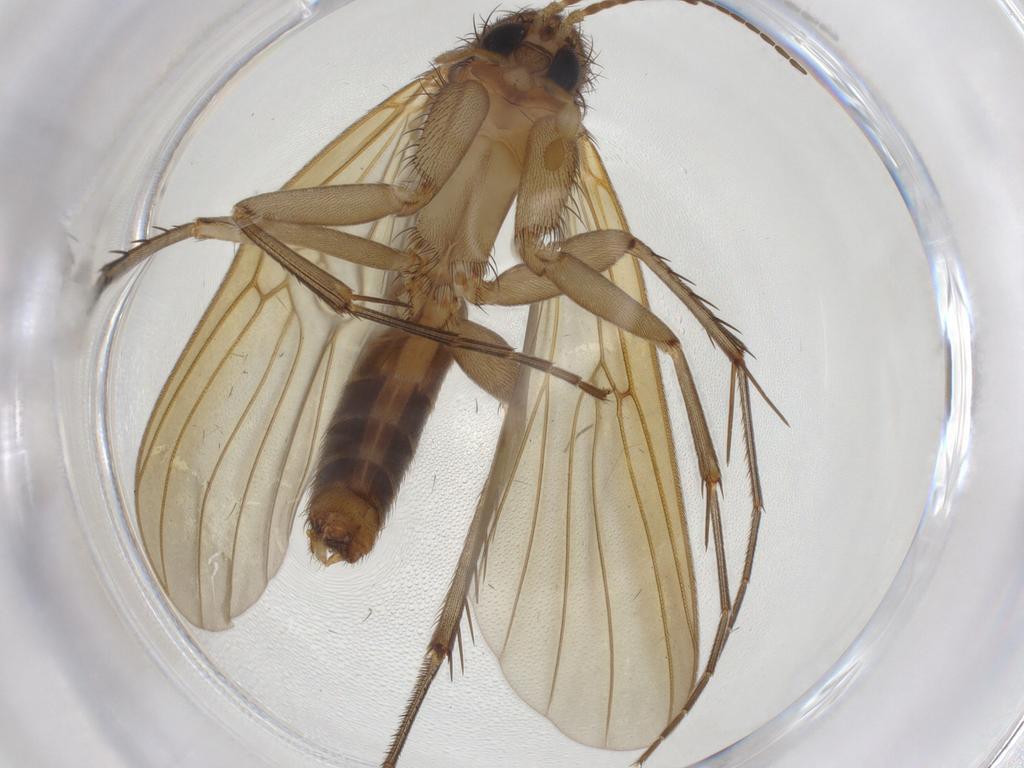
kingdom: Animalia
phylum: Arthropoda
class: Insecta
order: Diptera
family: Mycetophilidae
